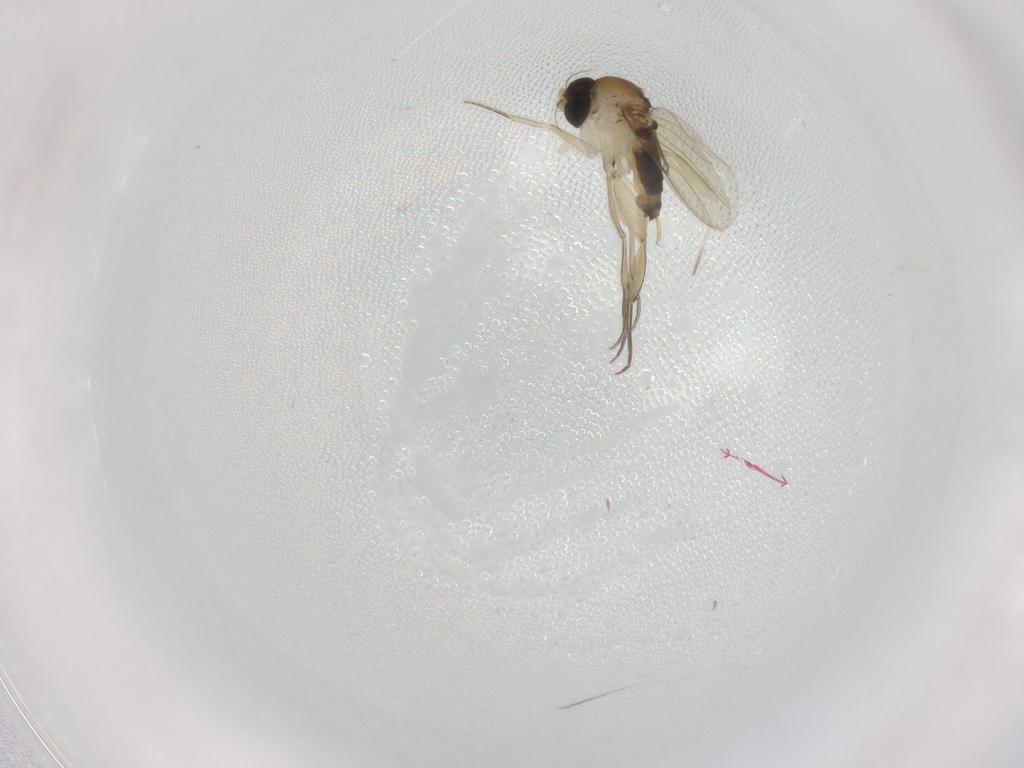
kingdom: Animalia
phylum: Arthropoda
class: Insecta
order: Diptera
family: Phoridae
